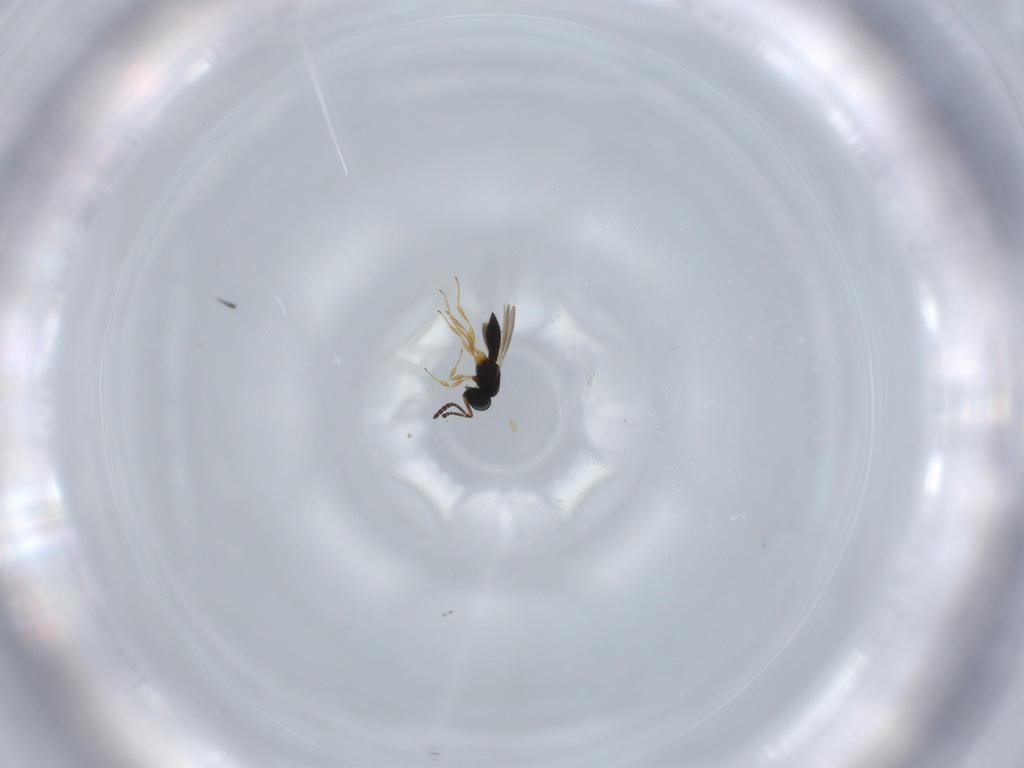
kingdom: Animalia
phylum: Arthropoda
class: Insecta
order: Hymenoptera
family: Scelionidae
